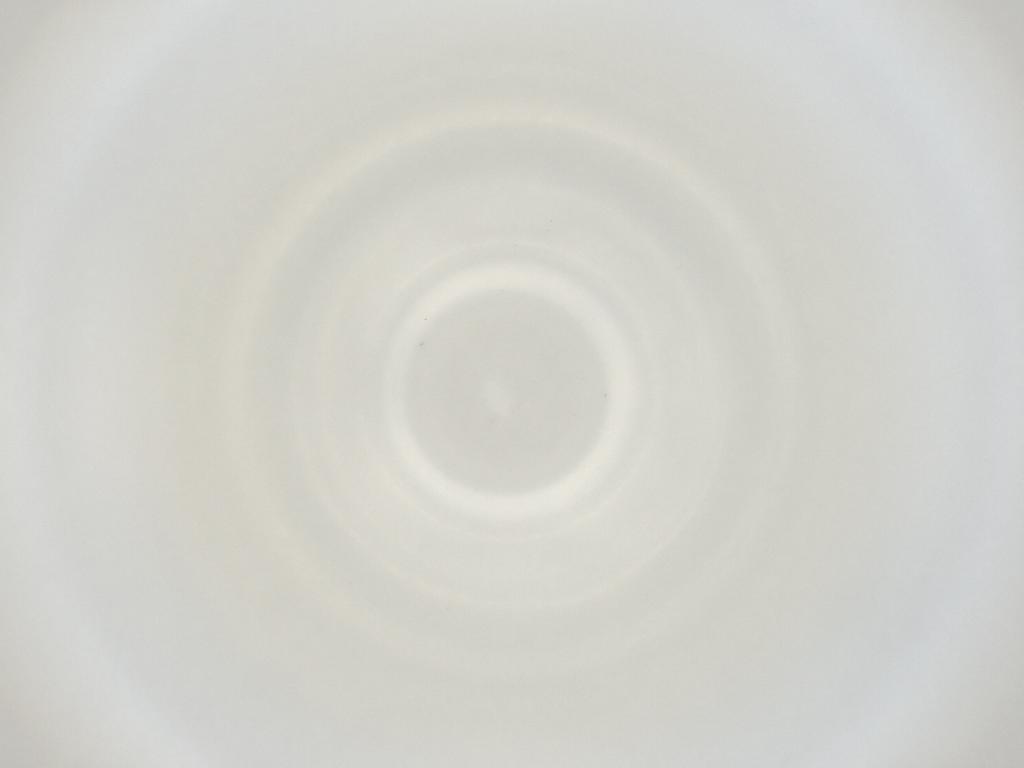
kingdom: Animalia
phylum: Arthropoda
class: Insecta
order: Diptera
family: Cecidomyiidae
